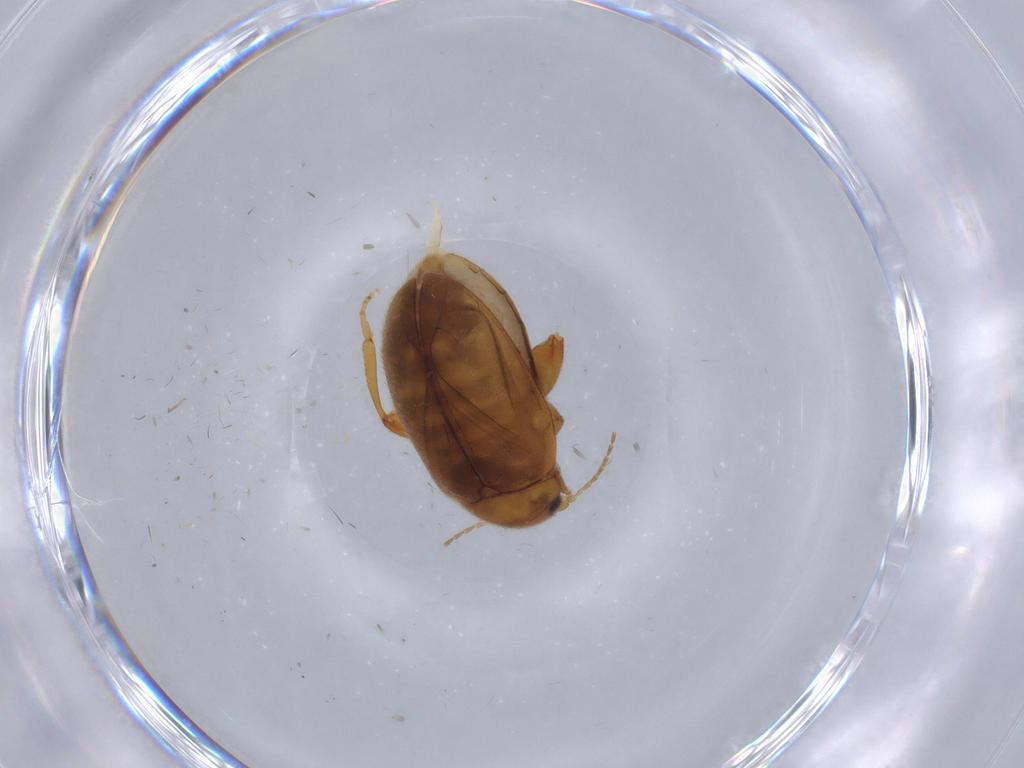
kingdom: Animalia
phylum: Arthropoda
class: Insecta
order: Coleoptera
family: Scirtidae
